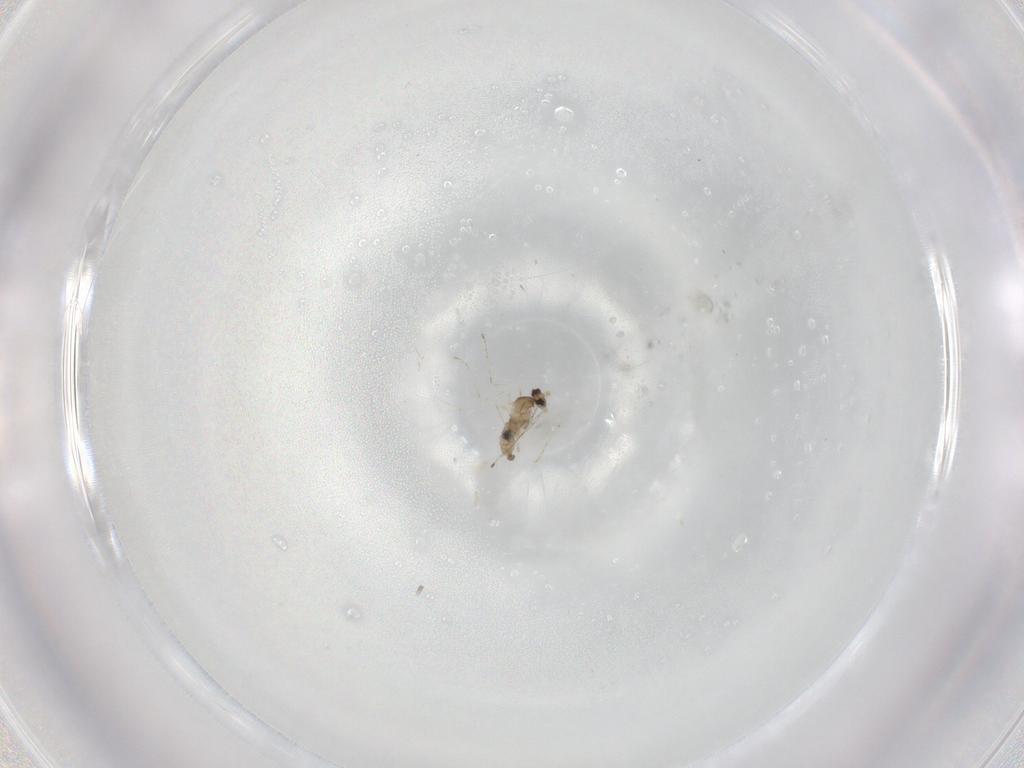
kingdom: Animalia
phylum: Arthropoda
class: Insecta
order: Diptera
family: Cecidomyiidae
